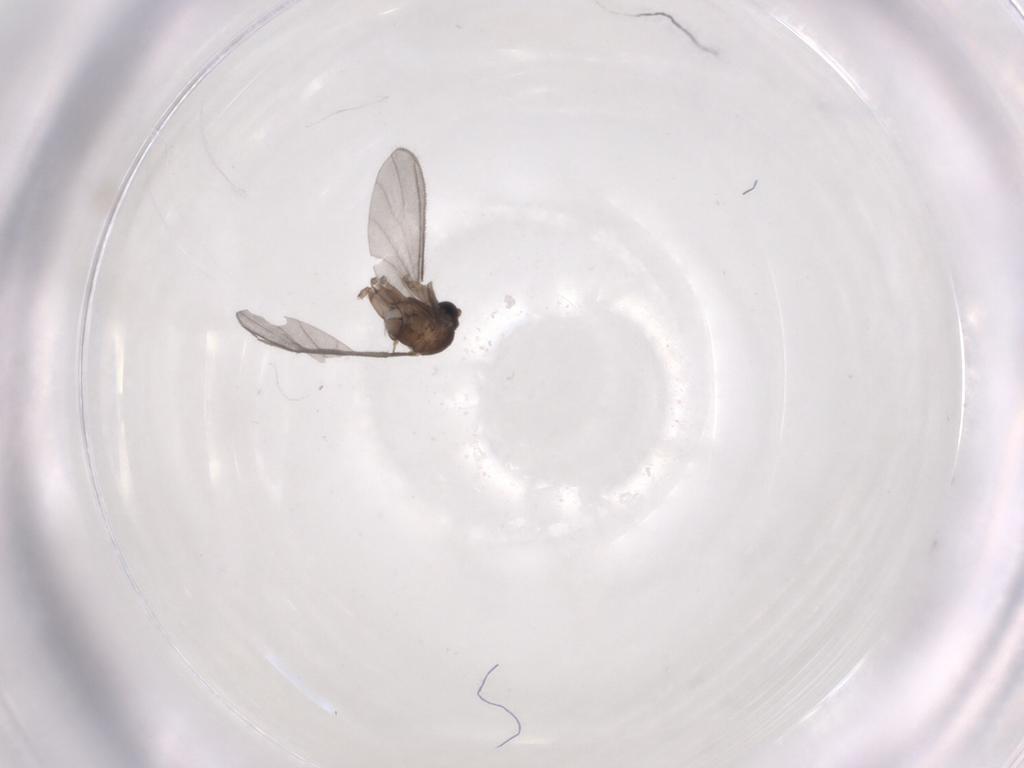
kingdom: Animalia
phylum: Arthropoda
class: Insecta
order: Diptera
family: Sciaridae
